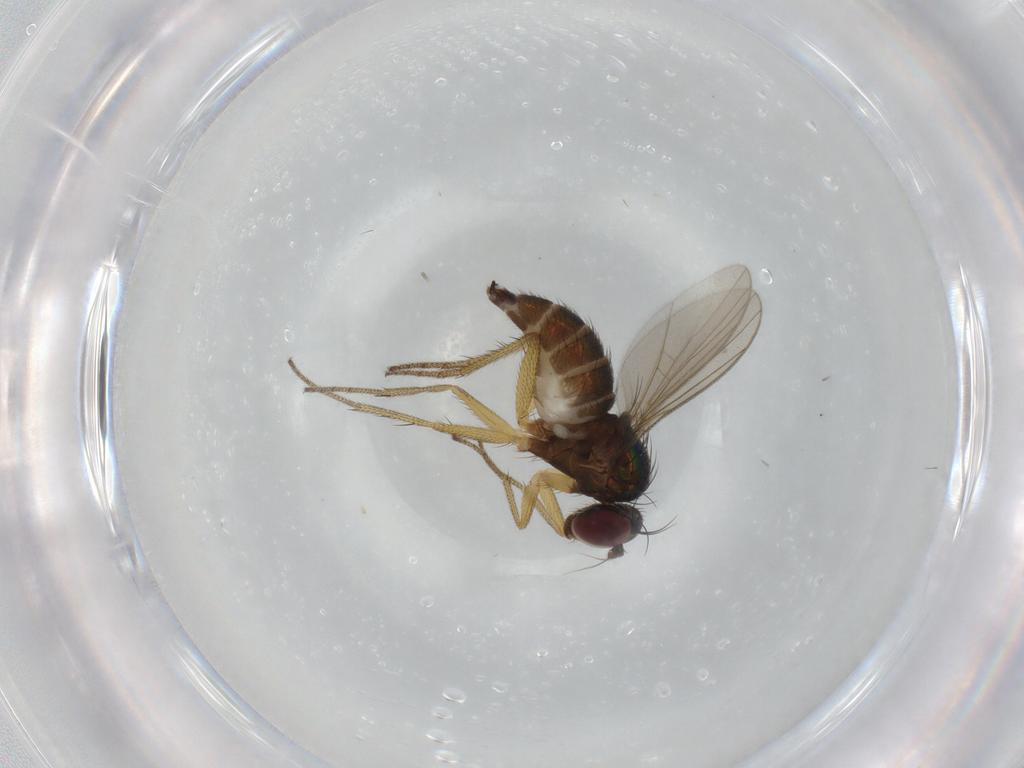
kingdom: Animalia
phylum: Arthropoda
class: Insecta
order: Diptera
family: Dolichopodidae
